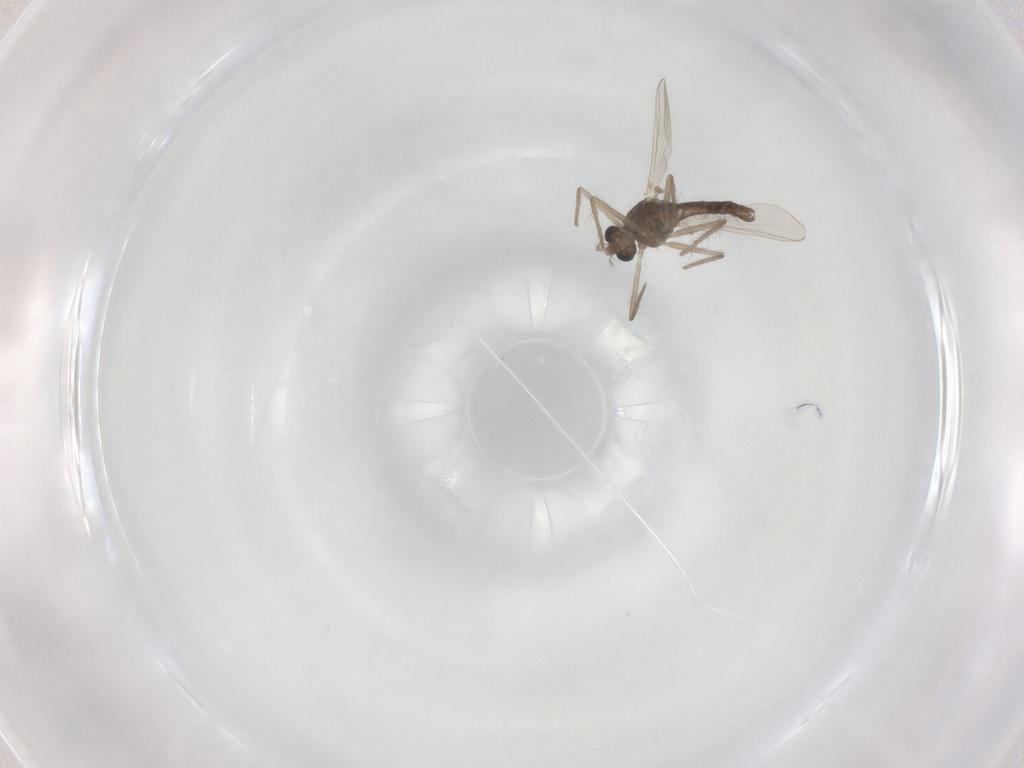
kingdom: Animalia
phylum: Arthropoda
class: Insecta
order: Diptera
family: Chironomidae
